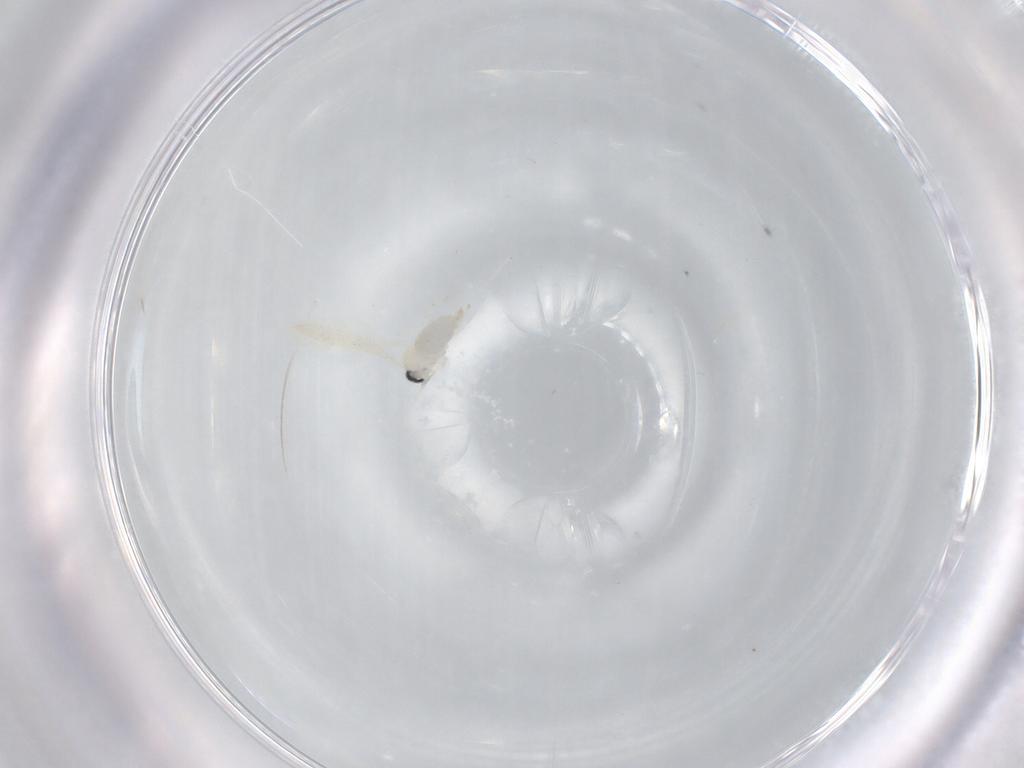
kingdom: Animalia
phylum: Arthropoda
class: Insecta
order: Diptera
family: Cecidomyiidae
